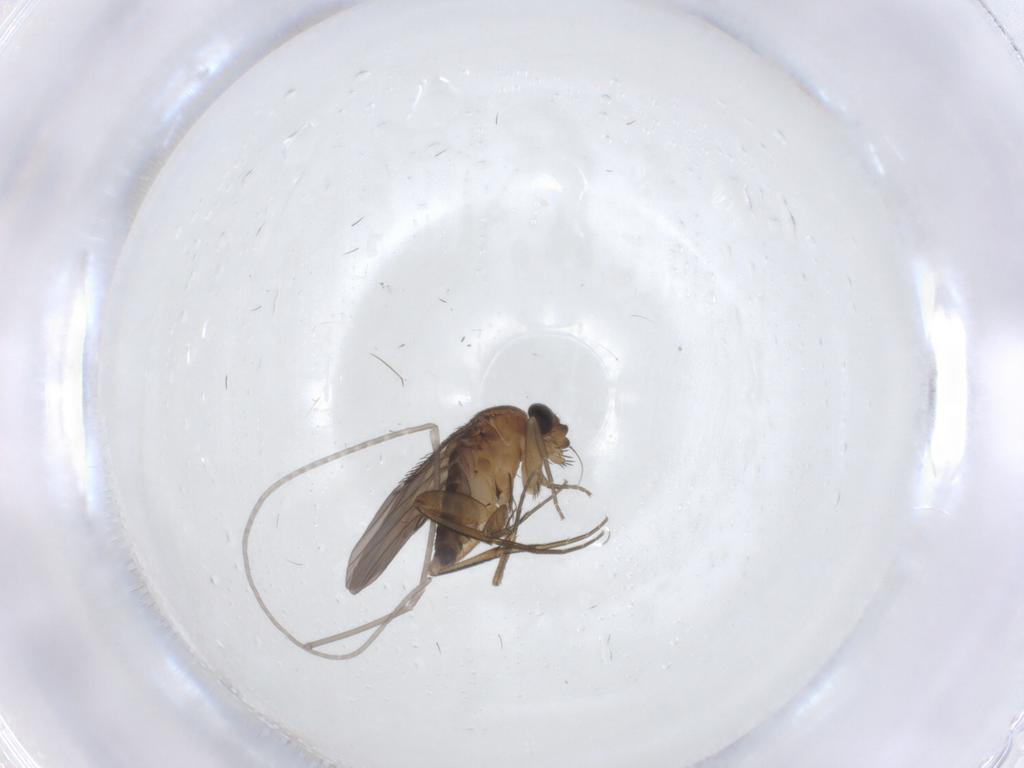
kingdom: Animalia
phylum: Arthropoda
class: Insecta
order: Diptera
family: Phoridae
